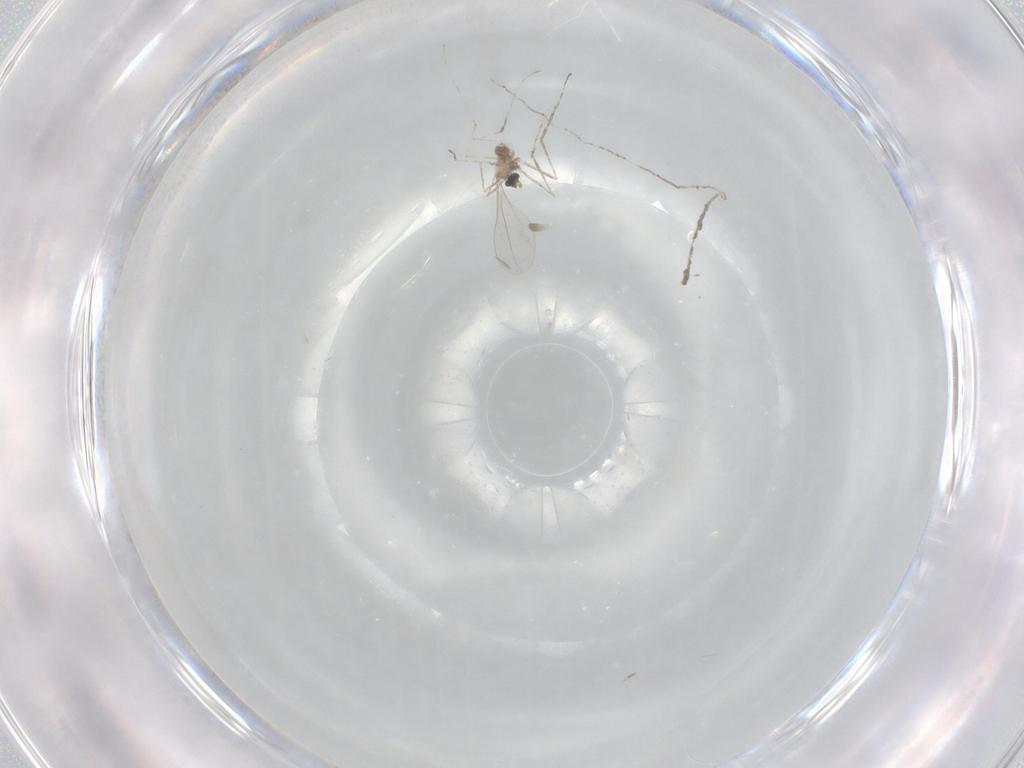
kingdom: Animalia
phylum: Arthropoda
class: Insecta
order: Diptera
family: Cecidomyiidae
